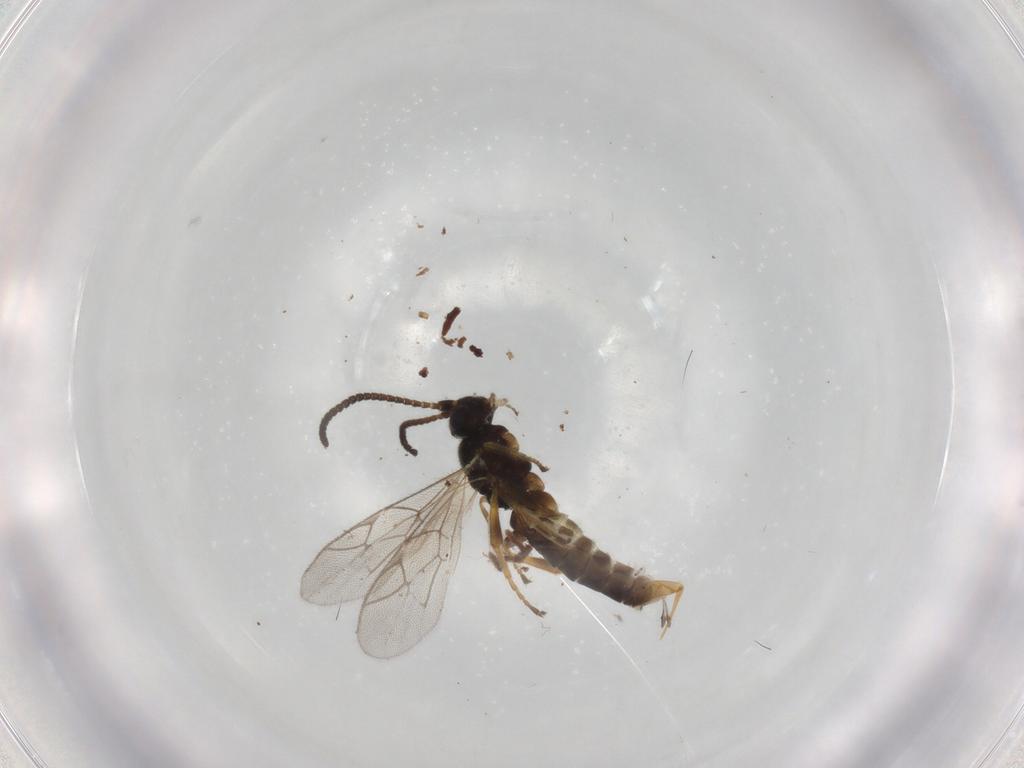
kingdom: Animalia
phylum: Arthropoda
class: Insecta
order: Hymenoptera
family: Ichneumonidae
